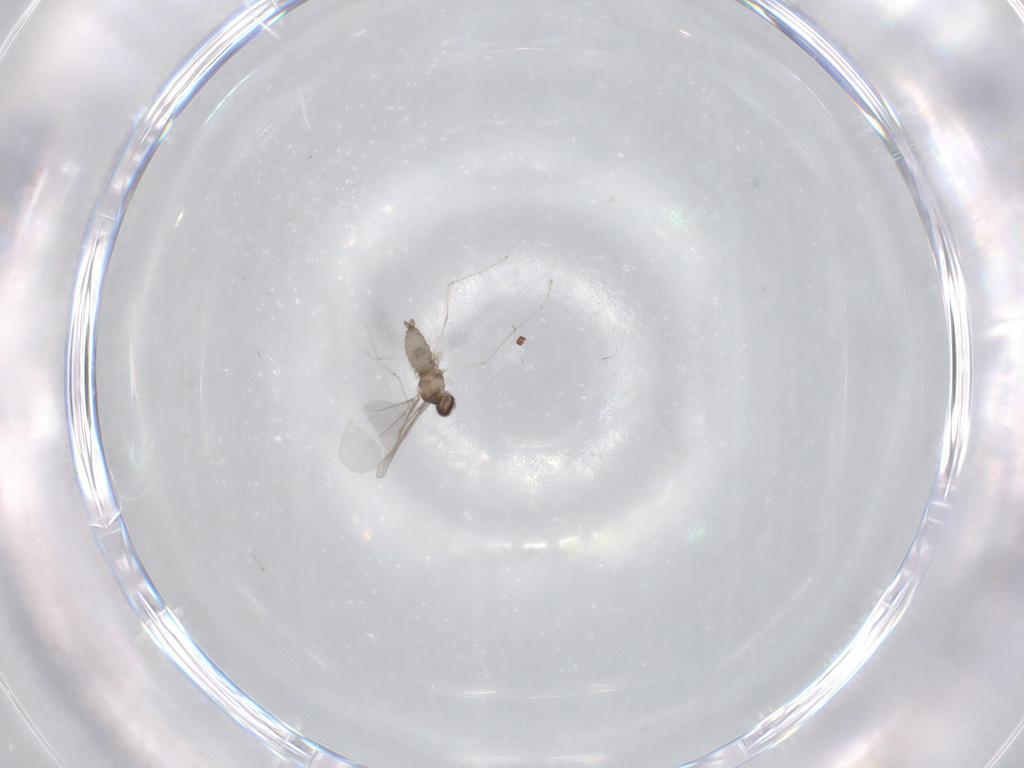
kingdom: Animalia
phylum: Arthropoda
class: Insecta
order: Diptera
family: Cecidomyiidae
